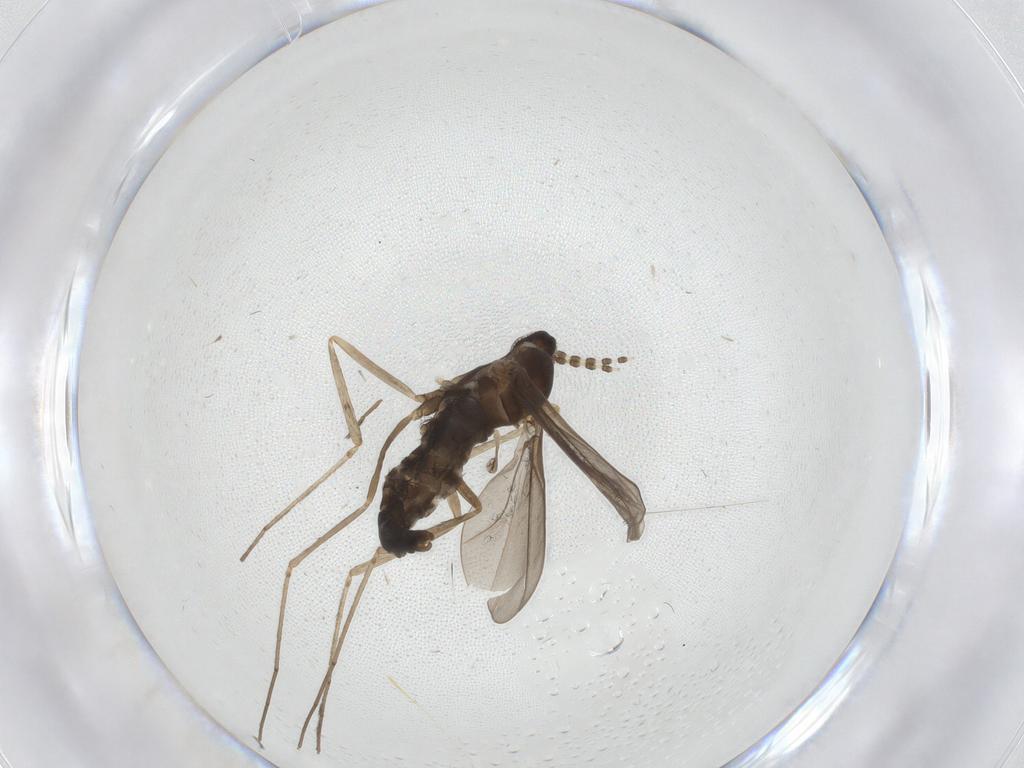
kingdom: Animalia
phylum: Arthropoda
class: Insecta
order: Diptera
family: Cecidomyiidae
